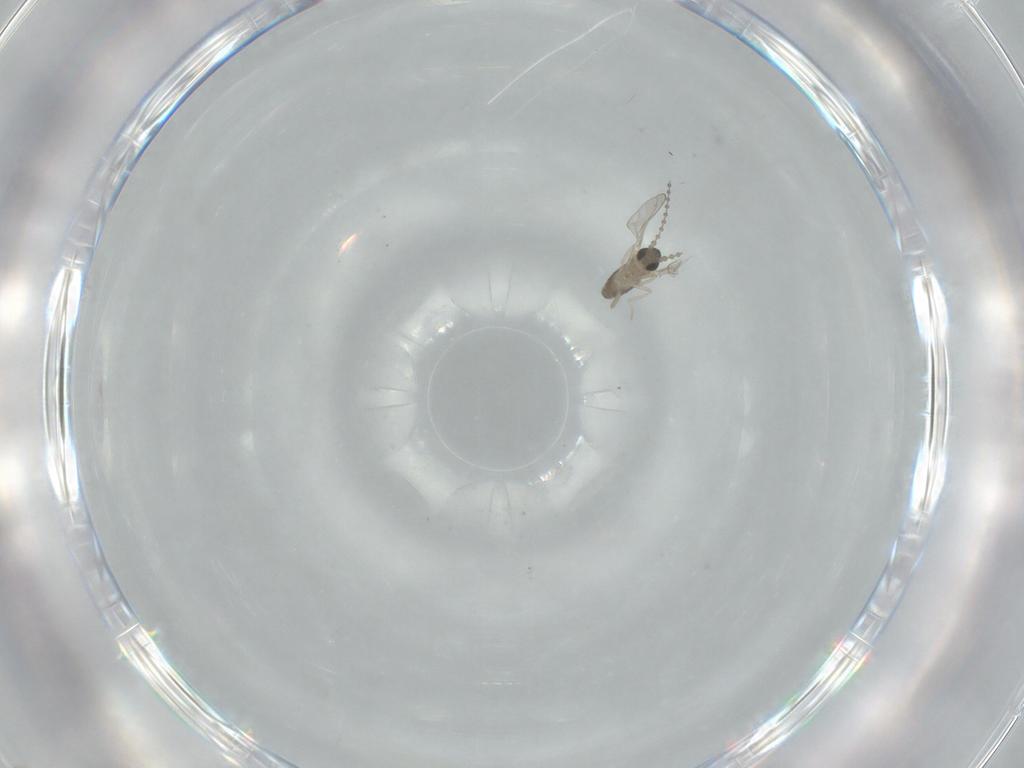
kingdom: Animalia
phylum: Arthropoda
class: Insecta
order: Diptera
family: Cecidomyiidae
